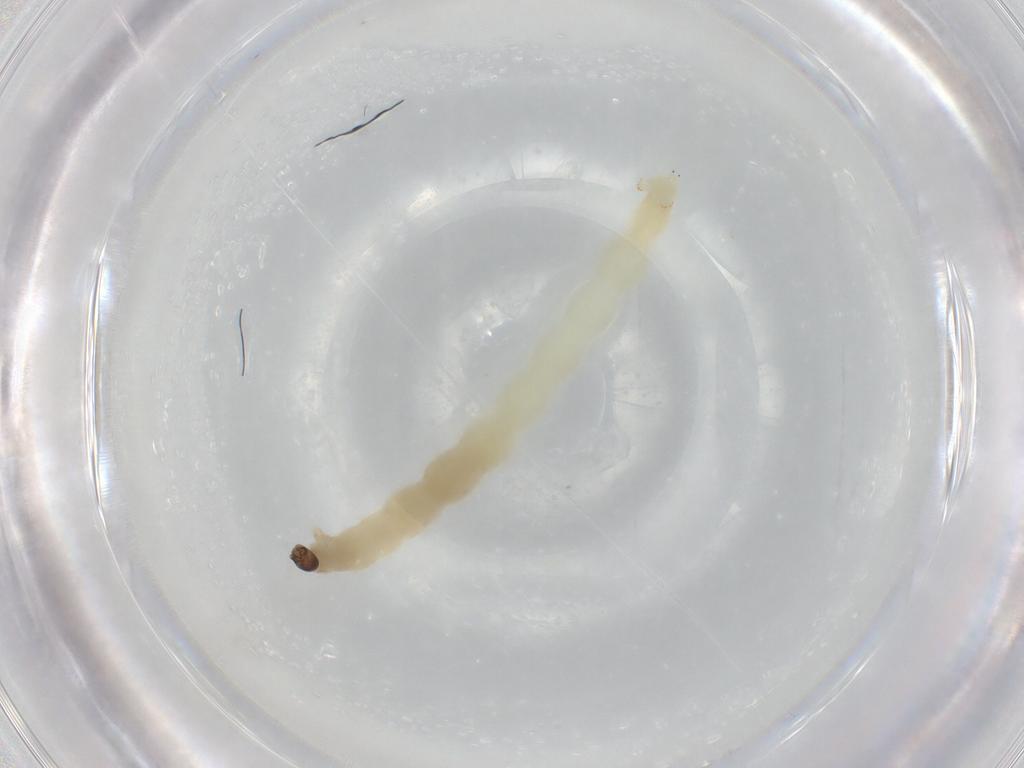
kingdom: Animalia
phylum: Arthropoda
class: Insecta
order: Diptera
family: Chironomidae
